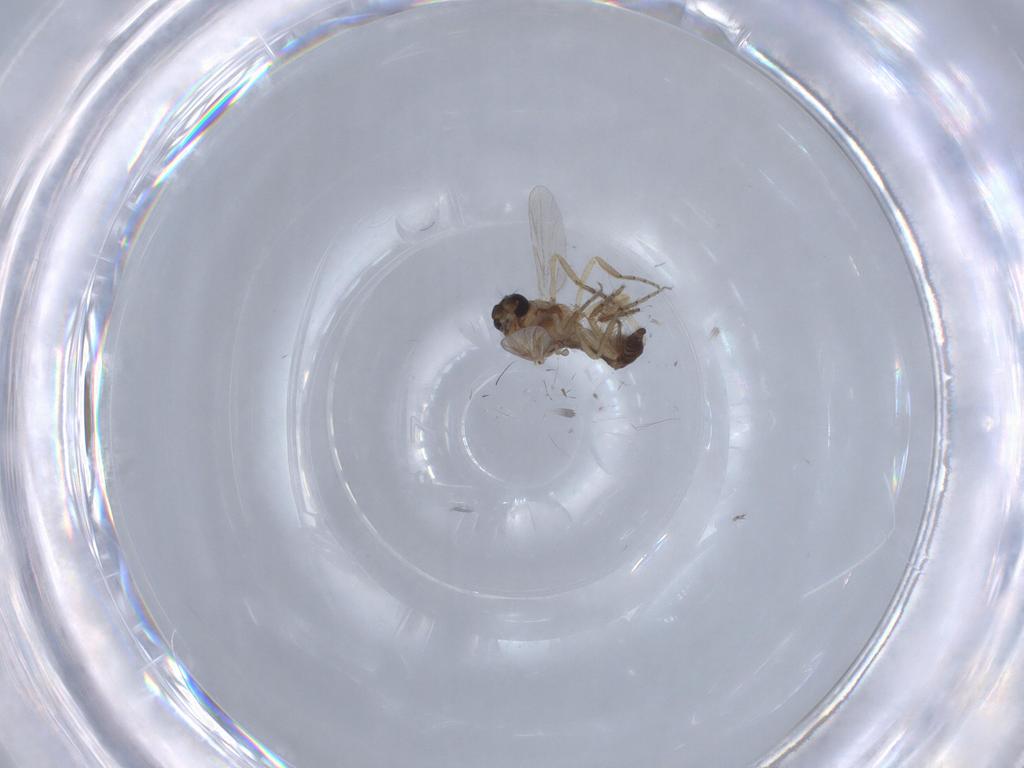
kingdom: Animalia
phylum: Arthropoda
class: Insecta
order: Diptera
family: Ceratopogonidae
